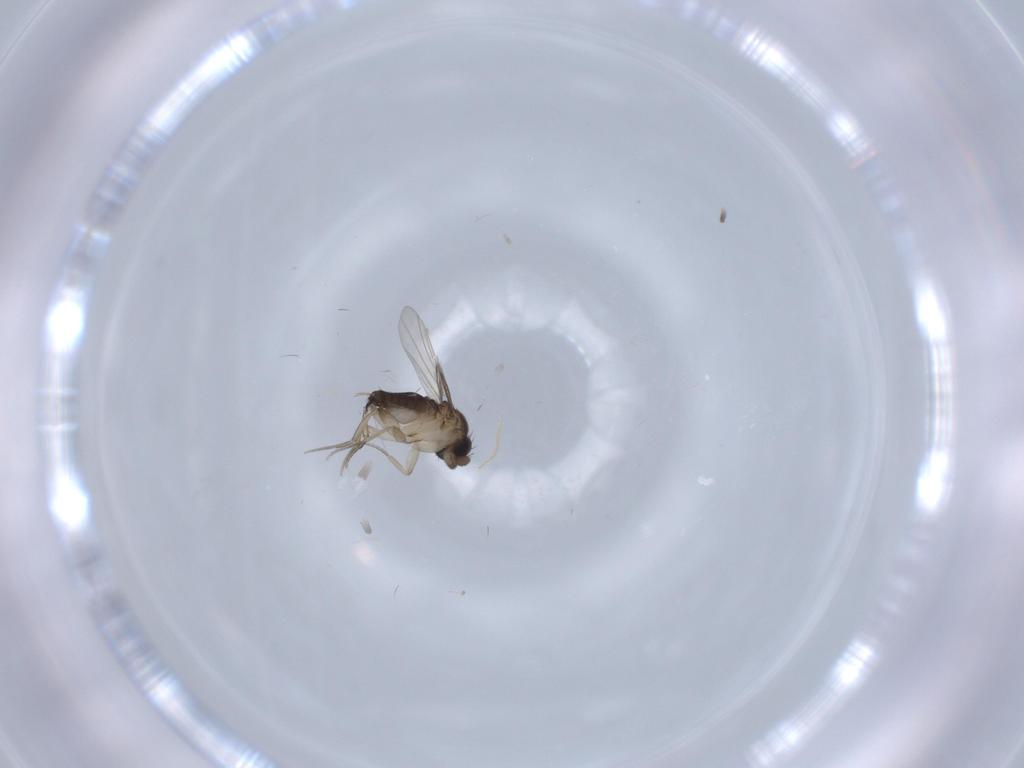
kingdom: Animalia
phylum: Arthropoda
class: Insecta
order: Diptera
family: Phoridae
